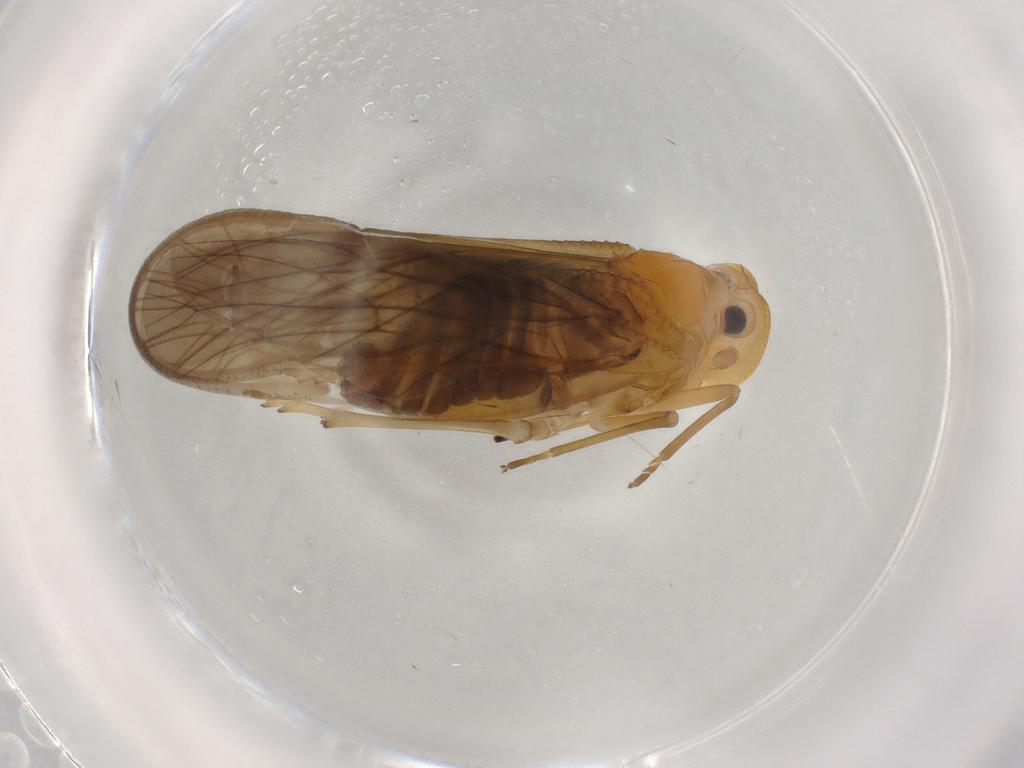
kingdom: Animalia
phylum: Arthropoda
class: Insecta
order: Hemiptera
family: Meenoplidae
